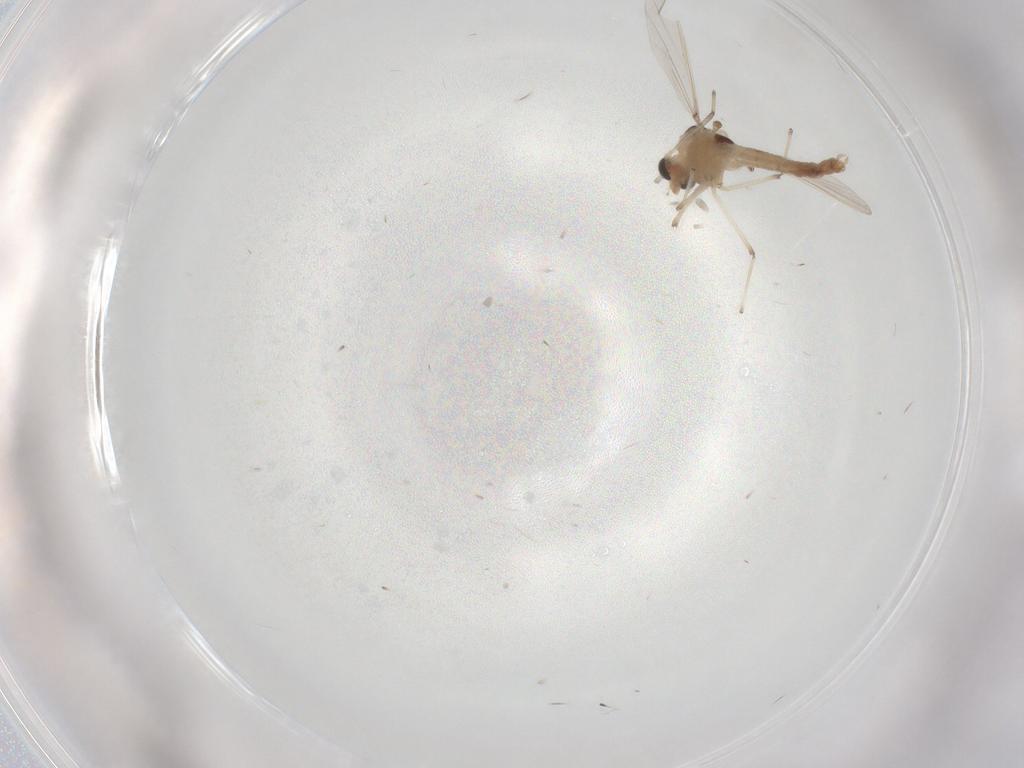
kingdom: Animalia
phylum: Arthropoda
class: Insecta
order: Diptera
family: Chironomidae
